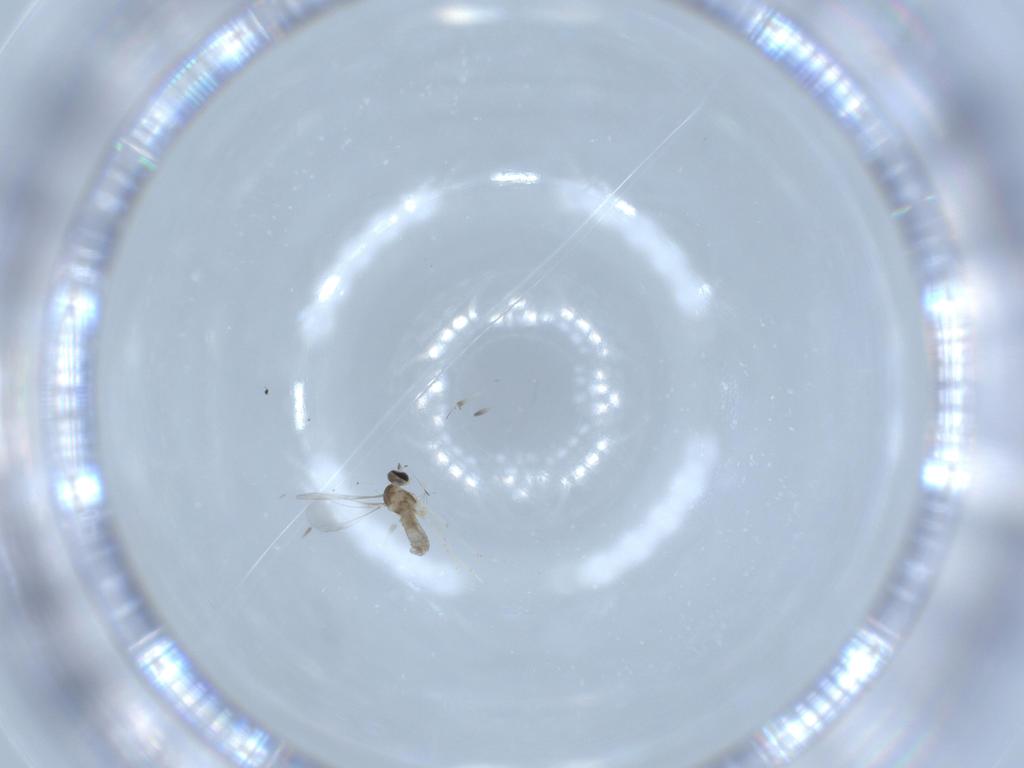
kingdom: Animalia
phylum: Arthropoda
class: Insecta
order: Diptera
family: Cecidomyiidae
